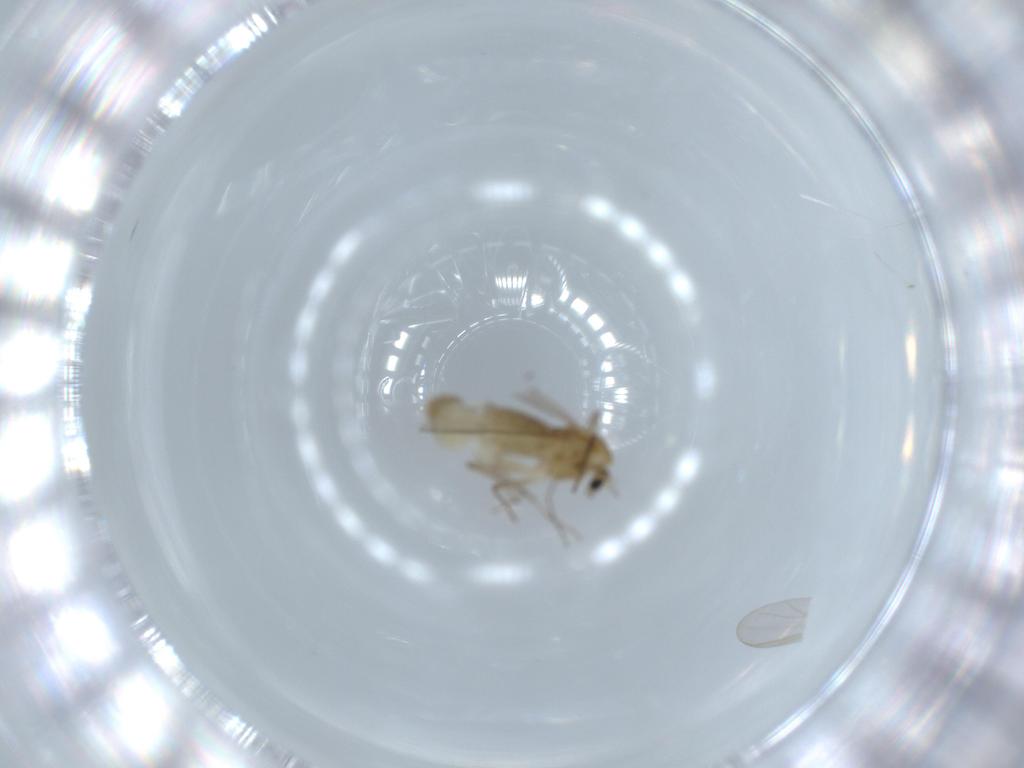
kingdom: Animalia
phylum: Arthropoda
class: Insecta
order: Diptera
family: Chironomidae
